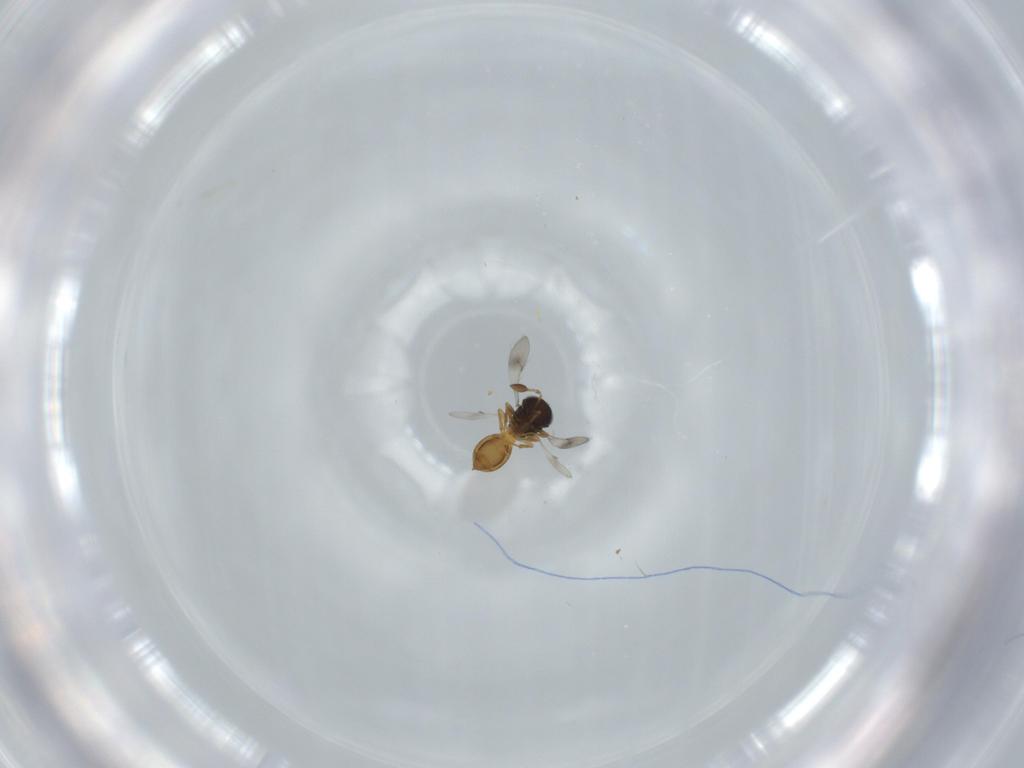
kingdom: Animalia
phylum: Arthropoda
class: Insecta
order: Hymenoptera
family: Scelionidae
